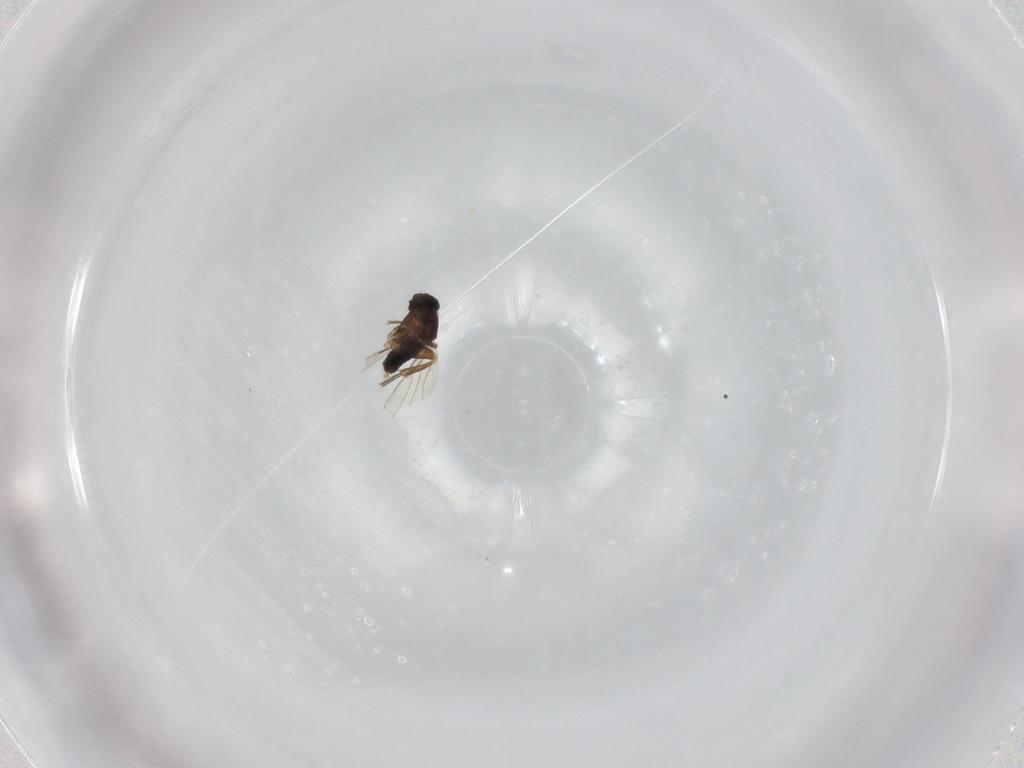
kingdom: Animalia
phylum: Arthropoda
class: Insecta
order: Diptera
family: Phoridae
